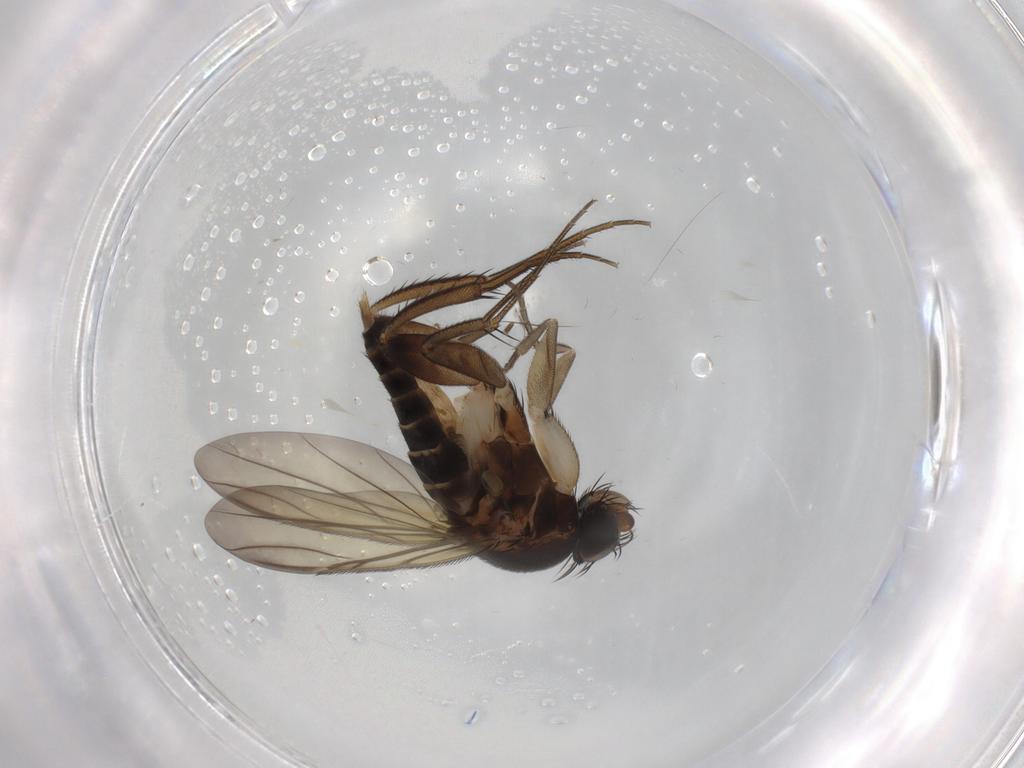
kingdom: Animalia
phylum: Arthropoda
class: Insecta
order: Diptera
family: Phoridae
